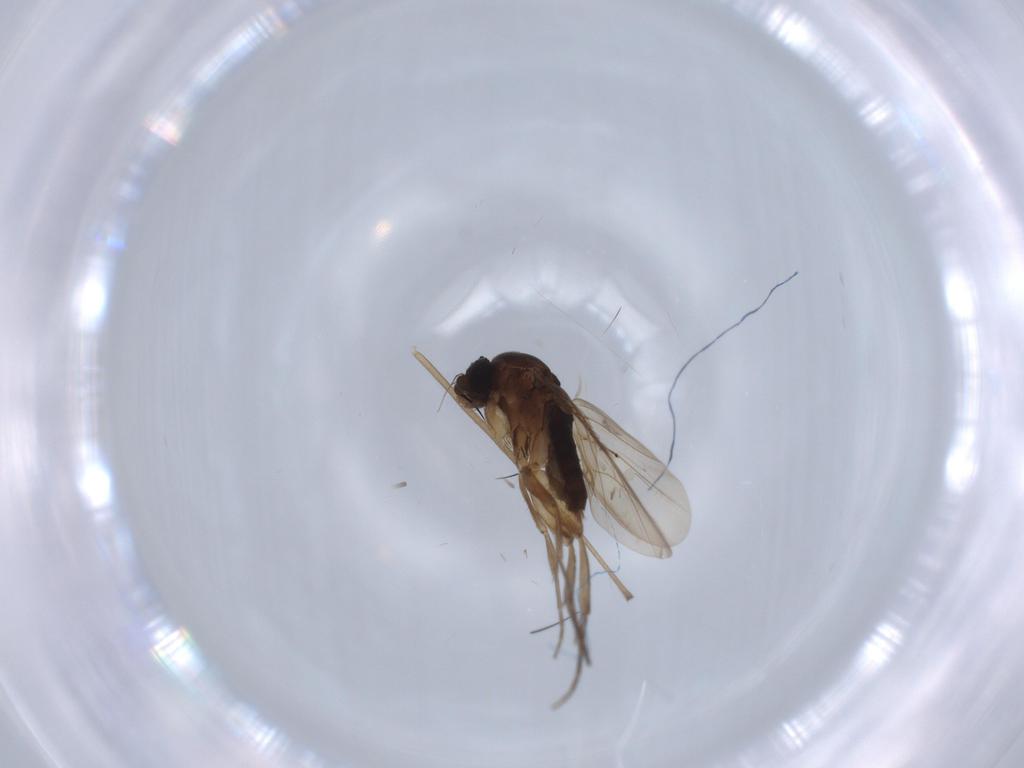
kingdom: Animalia
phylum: Arthropoda
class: Insecta
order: Diptera
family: Phoridae
